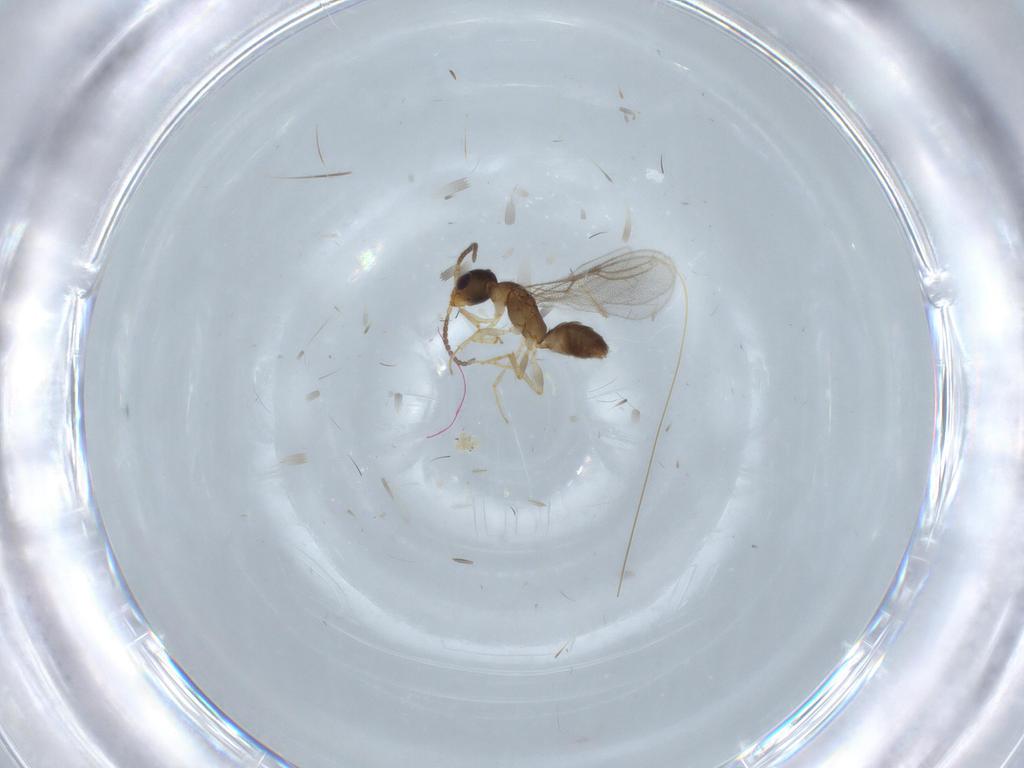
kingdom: Animalia
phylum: Arthropoda
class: Insecta
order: Hymenoptera
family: Bethylidae
